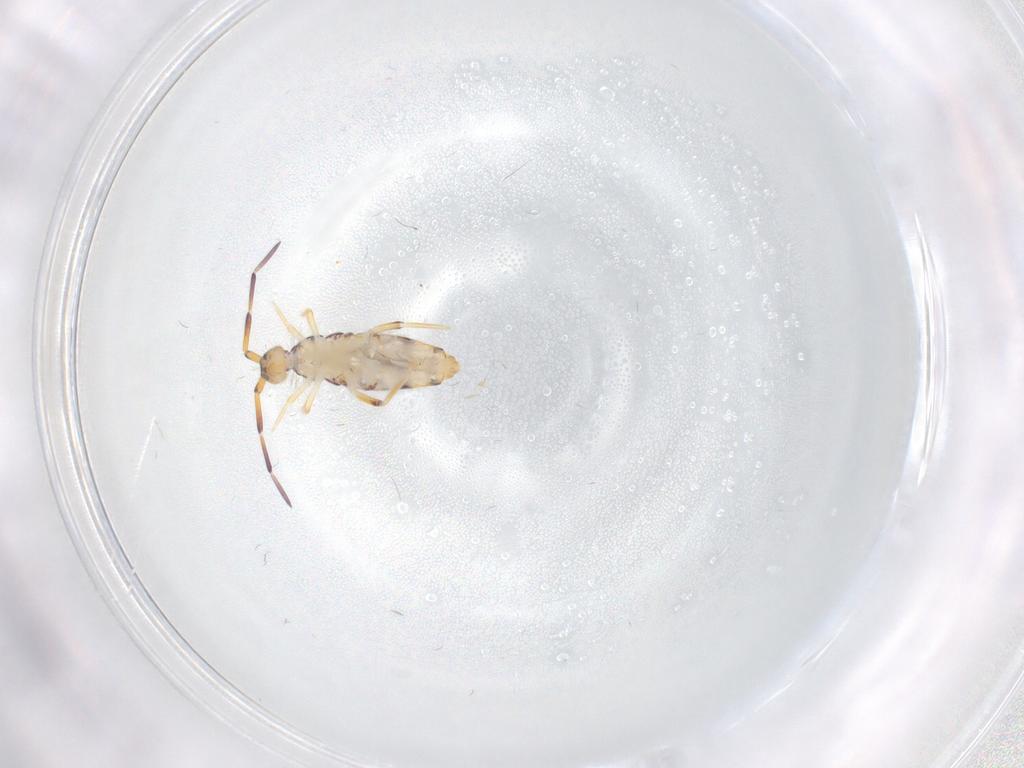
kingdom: Animalia
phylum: Arthropoda
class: Collembola
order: Entomobryomorpha
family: Entomobryidae
